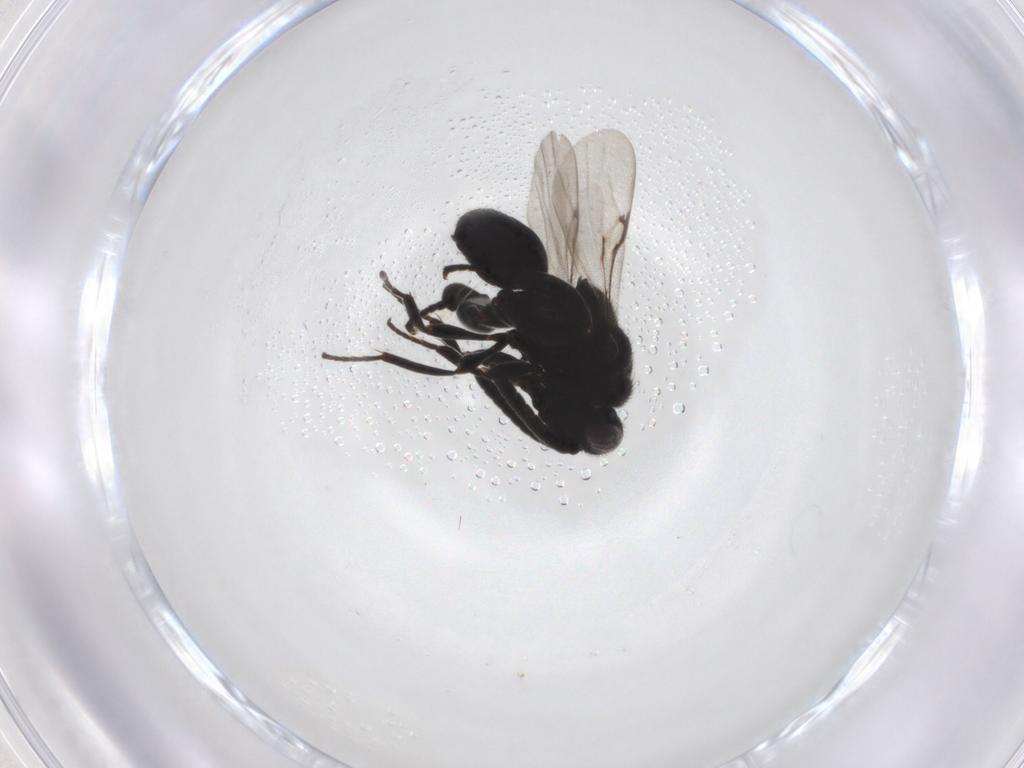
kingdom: Animalia
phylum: Arthropoda
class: Insecta
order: Hymenoptera
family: Chalcididae
